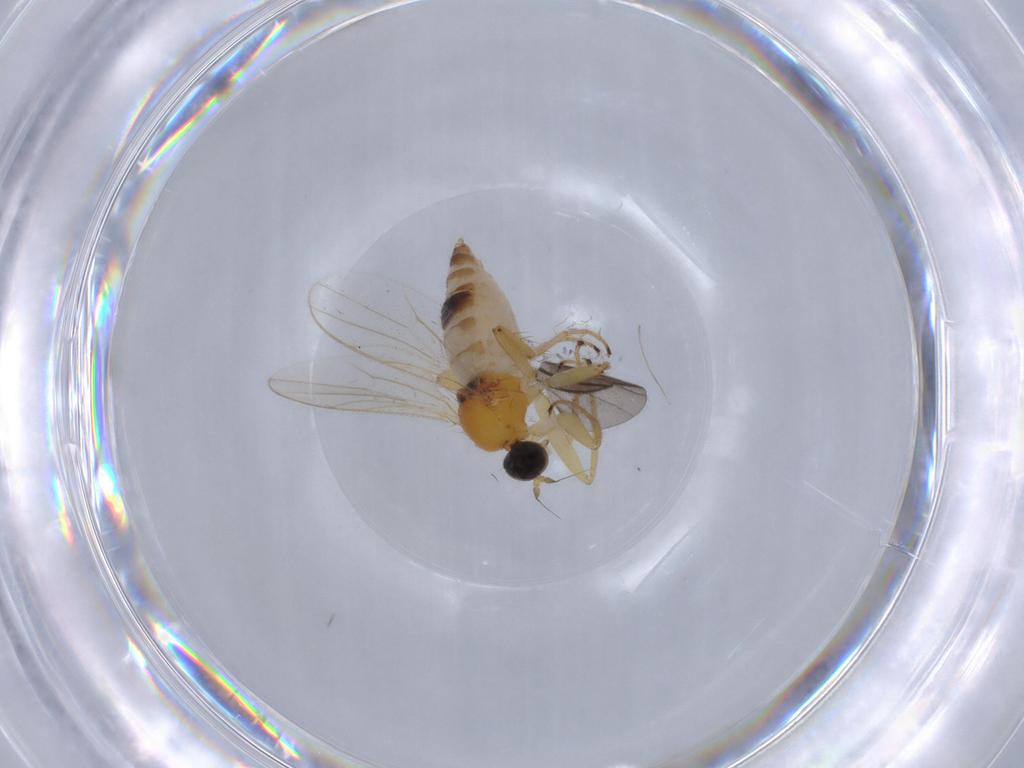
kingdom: Animalia
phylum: Arthropoda
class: Insecta
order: Diptera
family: Hybotidae
